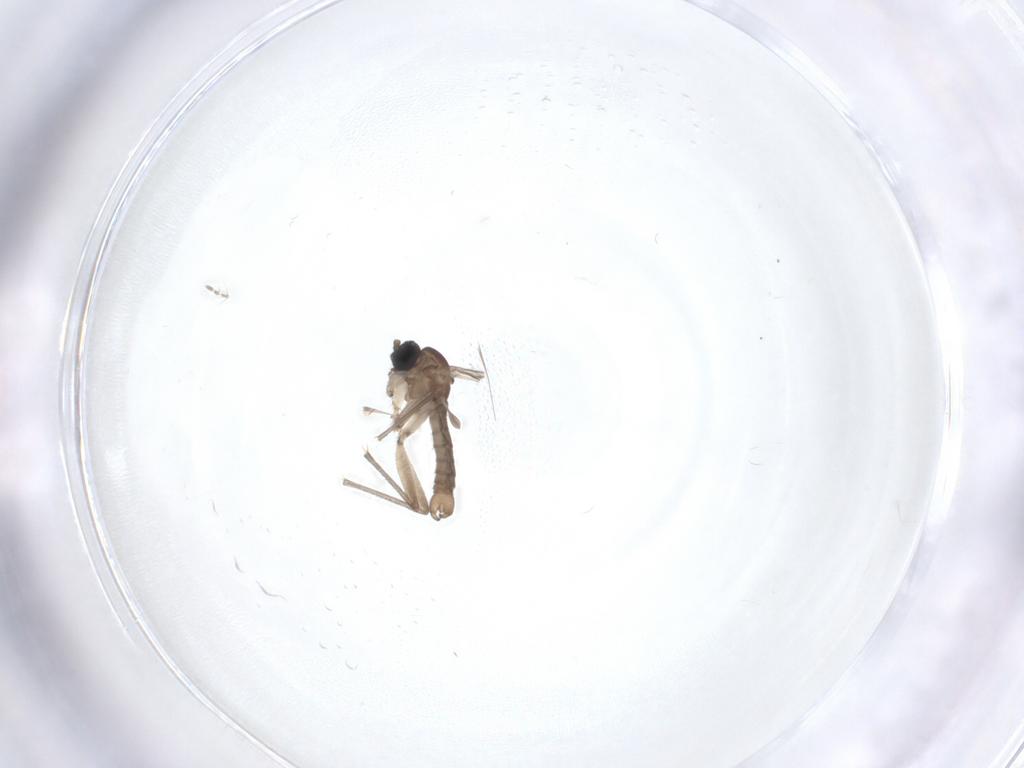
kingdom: Animalia
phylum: Arthropoda
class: Insecta
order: Diptera
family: Sciaridae
